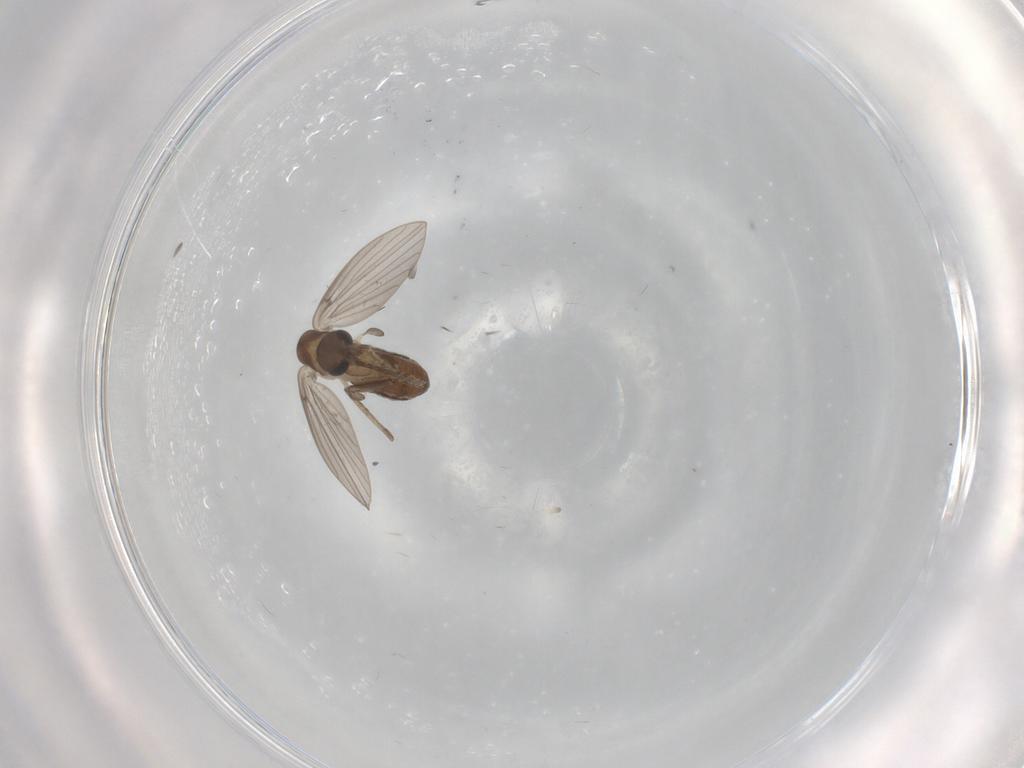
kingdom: Animalia
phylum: Arthropoda
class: Insecta
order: Diptera
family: Psychodidae
